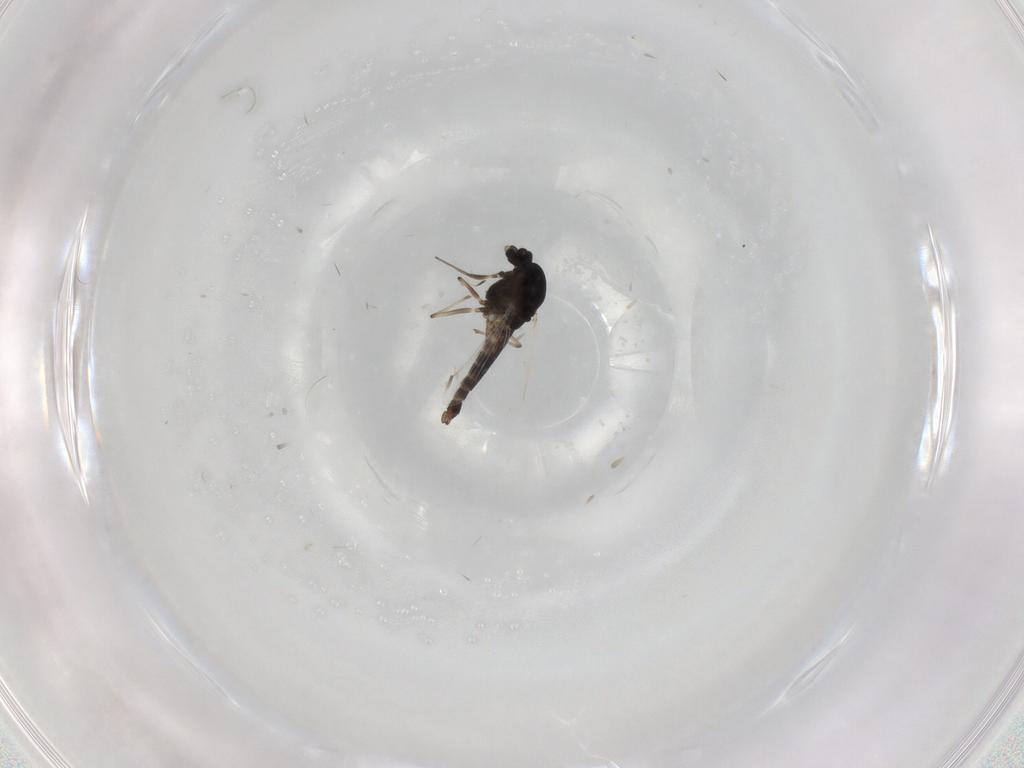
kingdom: Animalia
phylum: Arthropoda
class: Insecta
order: Diptera
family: Chironomidae
